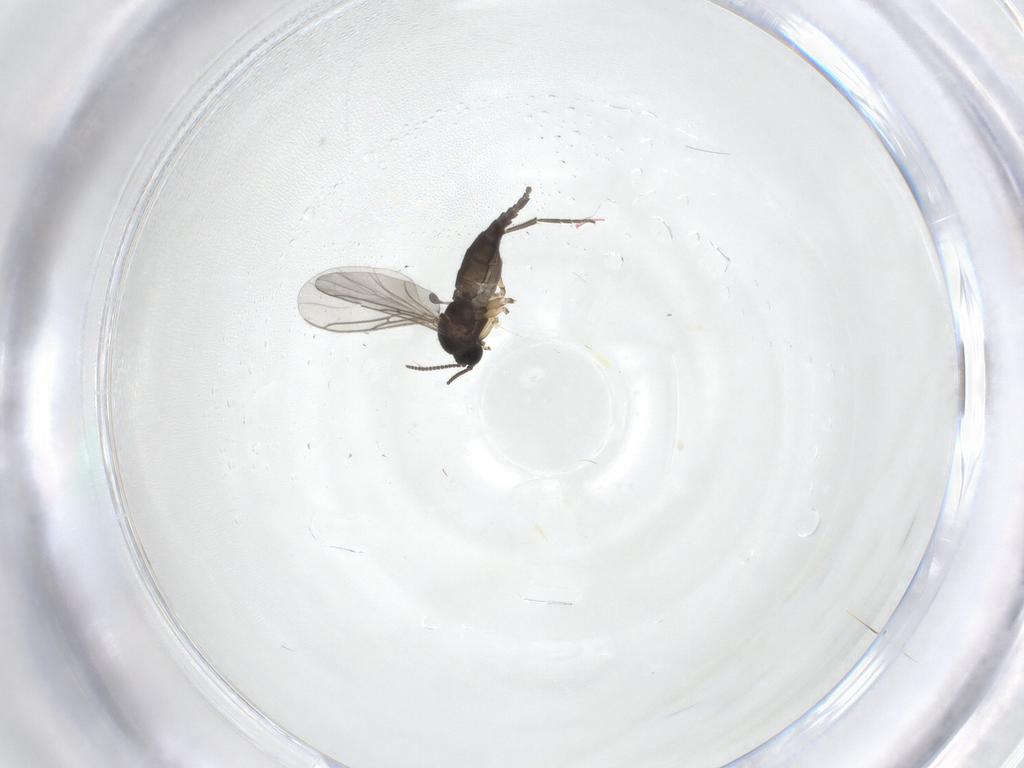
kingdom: Animalia
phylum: Arthropoda
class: Insecta
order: Diptera
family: Sciaridae
